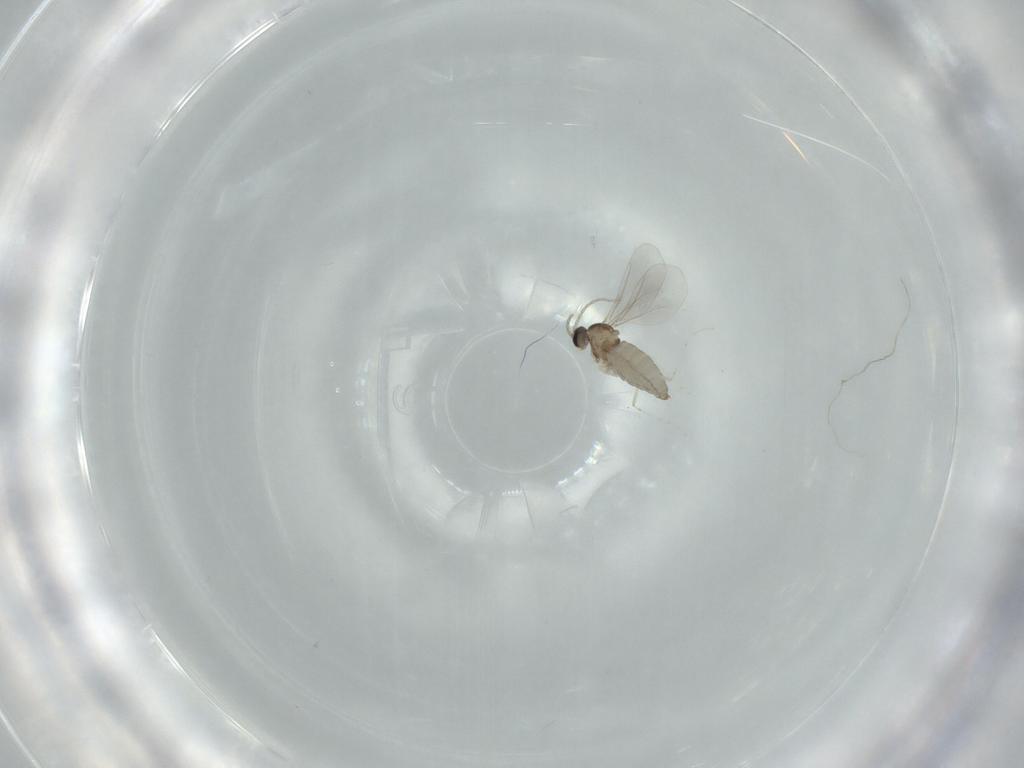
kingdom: Animalia
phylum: Arthropoda
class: Insecta
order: Diptera
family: Cecidomyiidae
